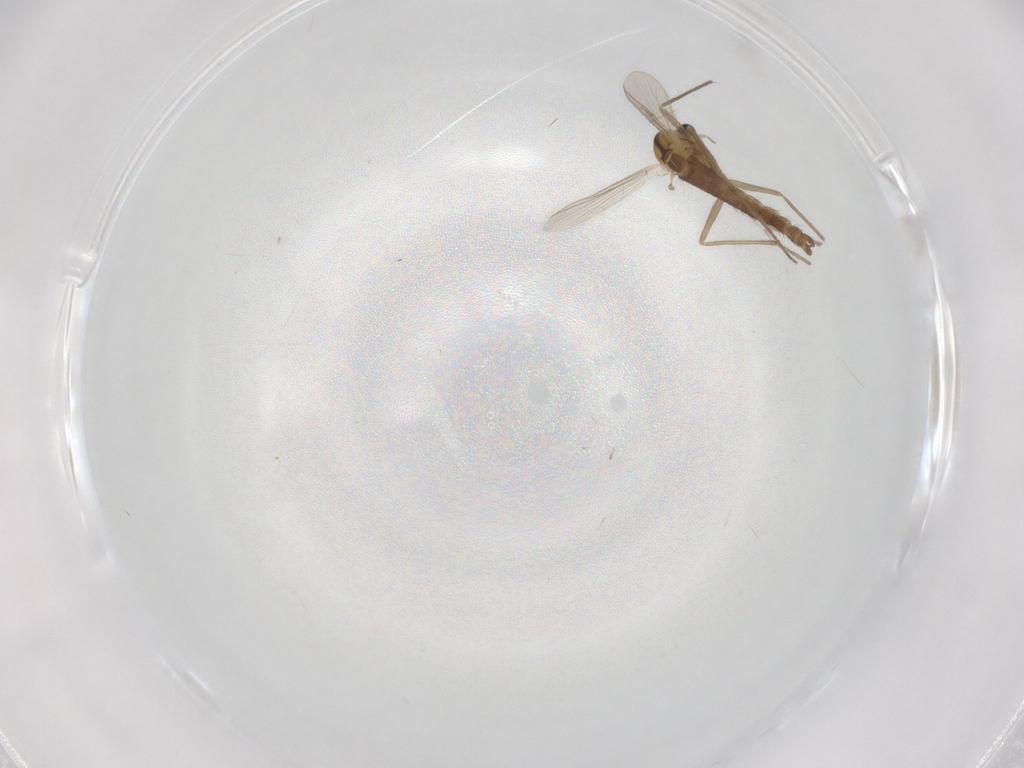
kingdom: Animalia
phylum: Arthropoda
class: Insecta
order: Diptera
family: Chironomidae
